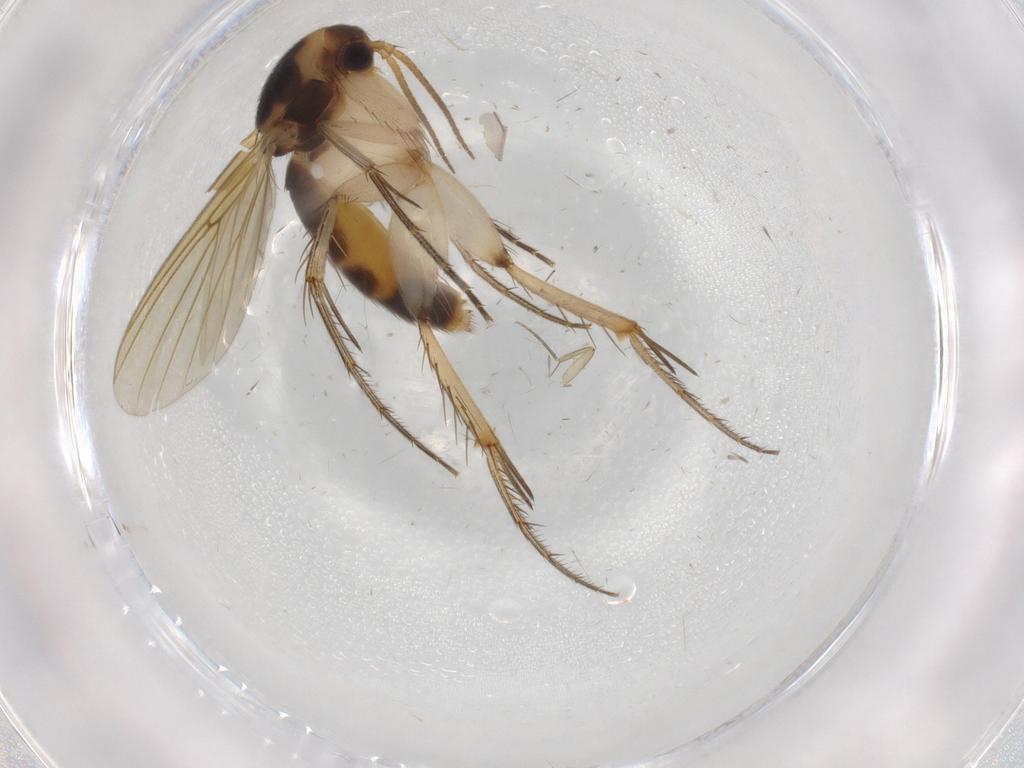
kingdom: Animalia
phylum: Arthropoda
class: Insecta
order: Diptera
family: Mycetophilidae
